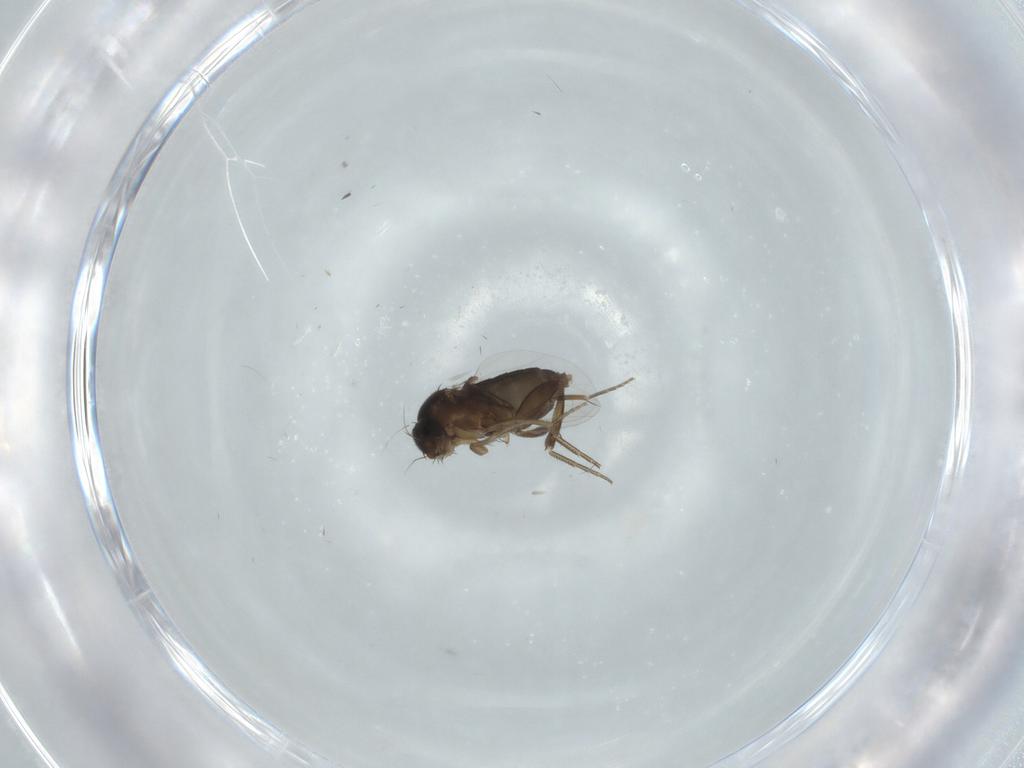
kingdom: Animalia
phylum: Arthropoda
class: Insecta
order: Diptera
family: Phoridae
